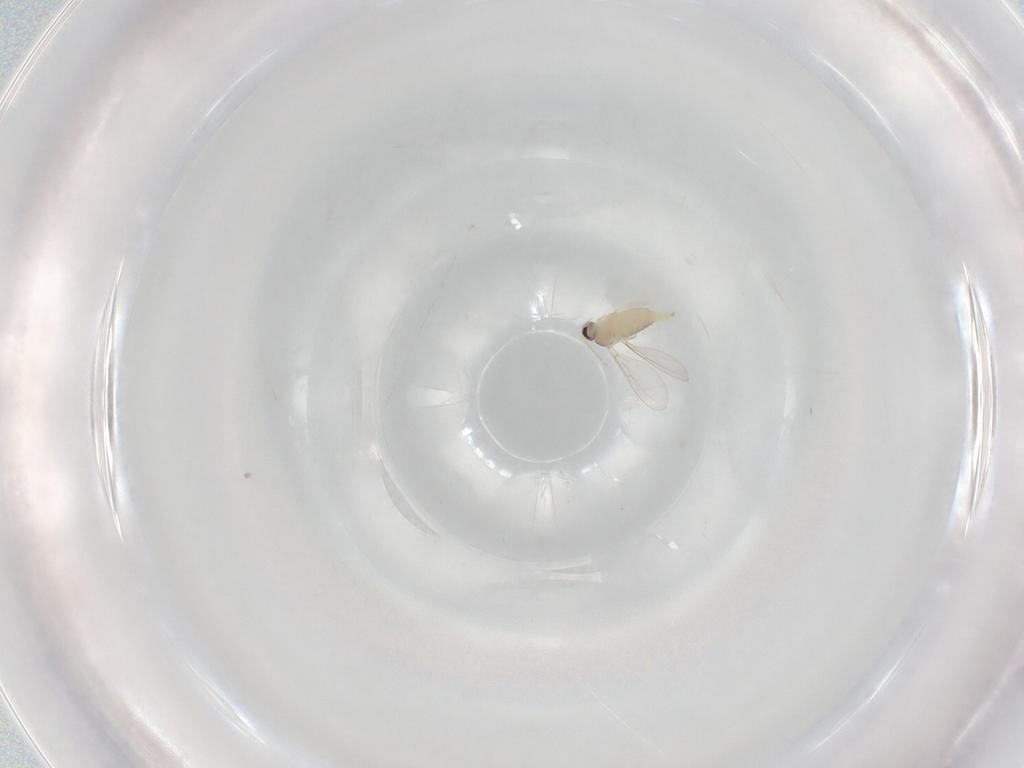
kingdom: Animalia
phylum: Arthropoda
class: Insecta
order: Diptera
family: Cecidomyiidae
